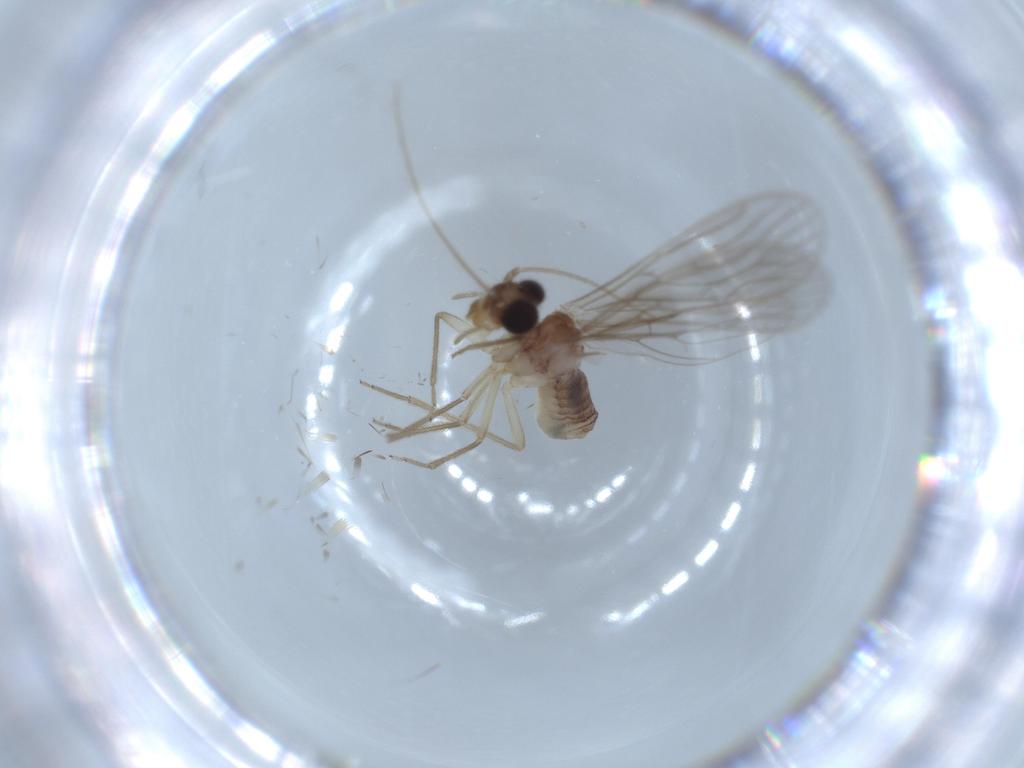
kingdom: Animalia
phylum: Arthropoda
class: Insecta
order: Psocodea
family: Cladiopsocidae
